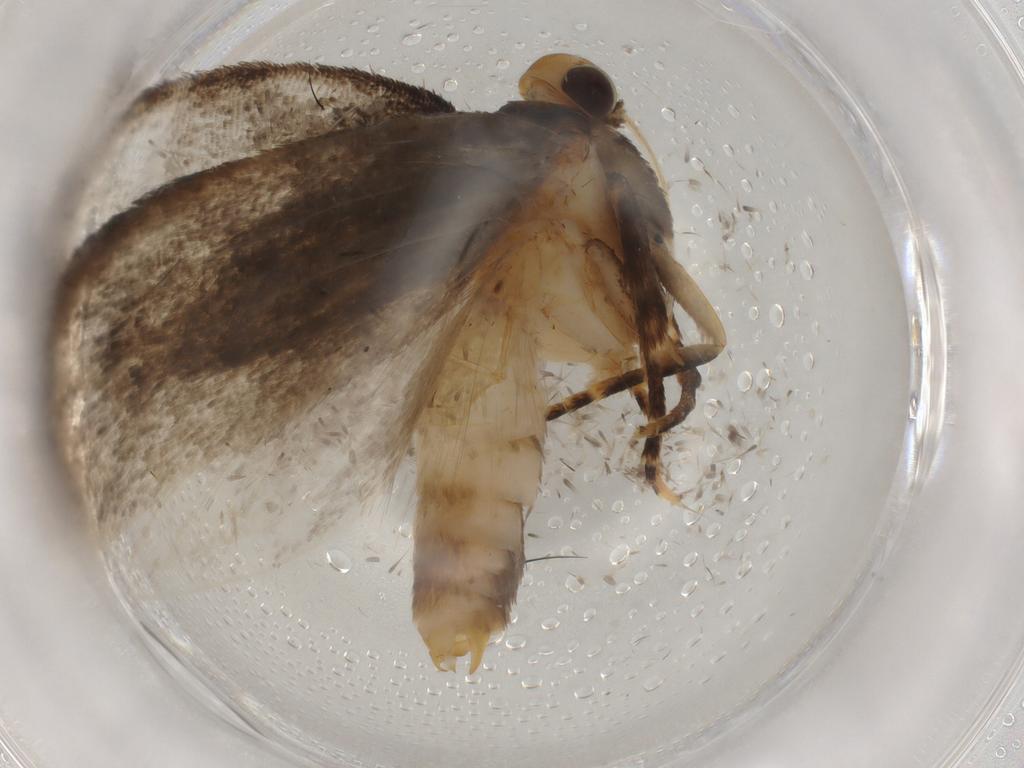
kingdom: Animalia
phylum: Arthropoda
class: Insecta
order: Lepidoptera
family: Oecophoridae
